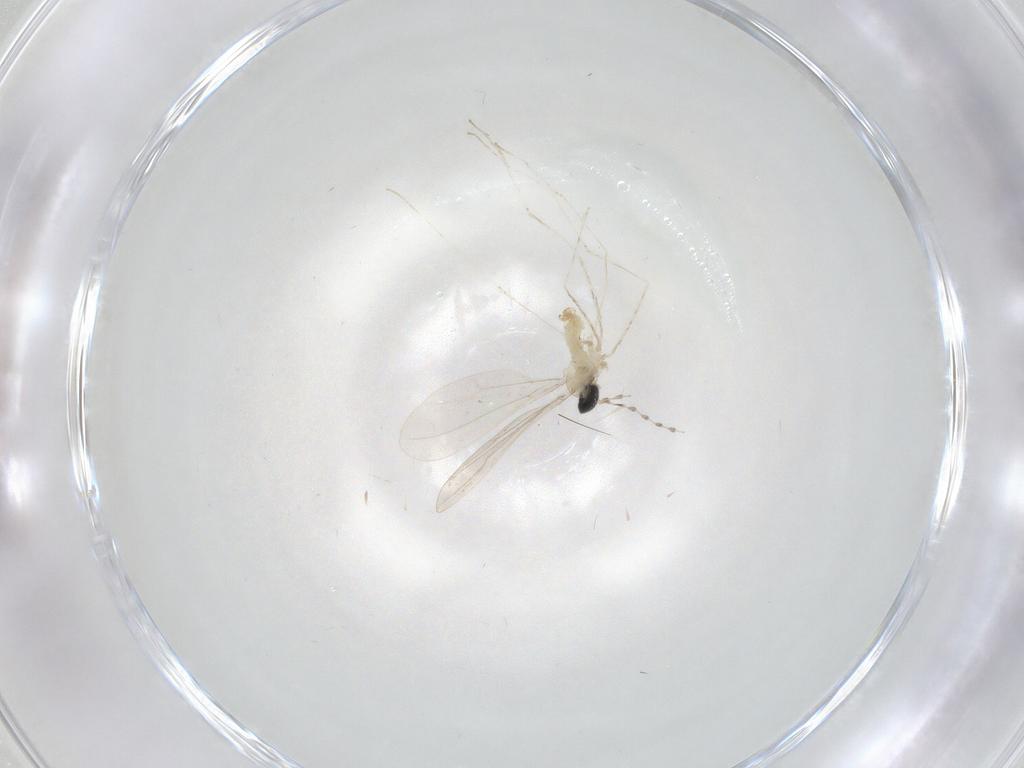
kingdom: Animalia
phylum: Arthropoda
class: Insecta
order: Diptera
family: Cecidomyiidae
